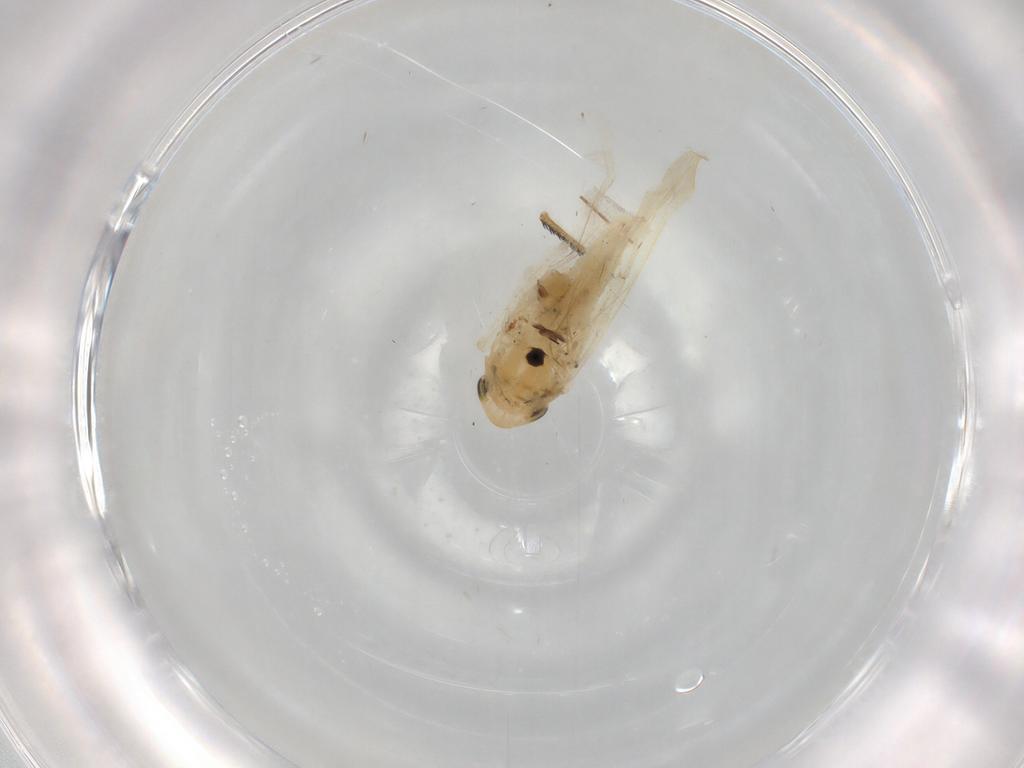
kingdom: Animalia
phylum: Arthropoda
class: Insecta
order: Hemiptera
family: Cicadellidae
